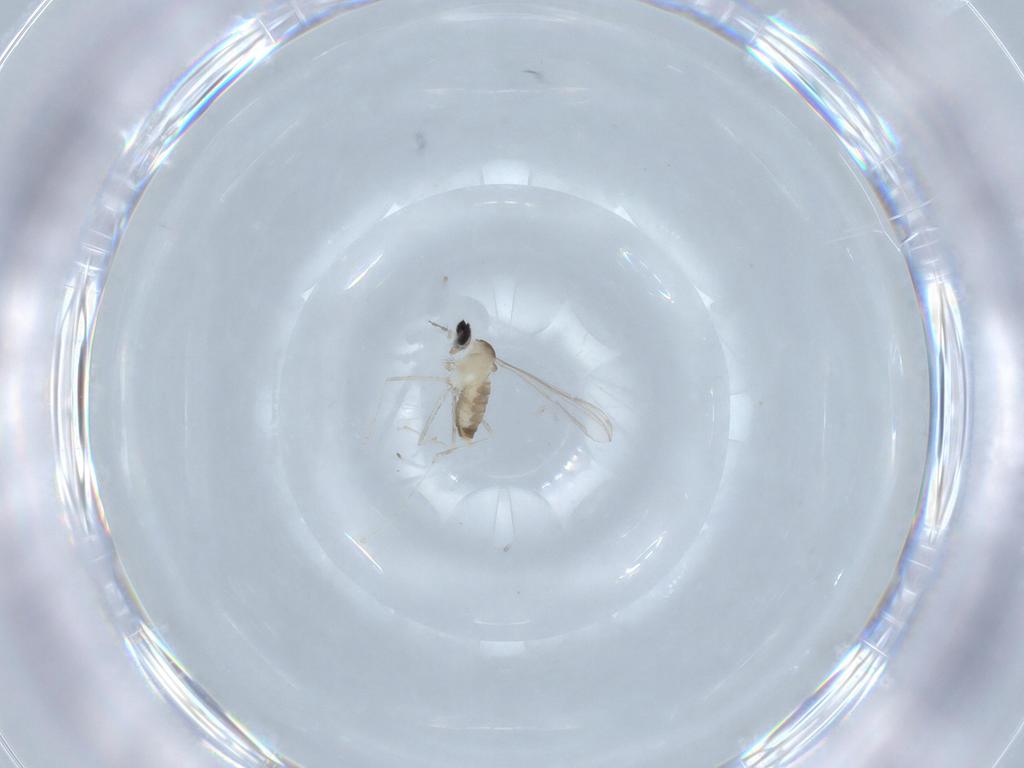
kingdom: Animalia
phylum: Arthropoda
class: Insecta
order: Diptera
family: Cecidomyiidae
